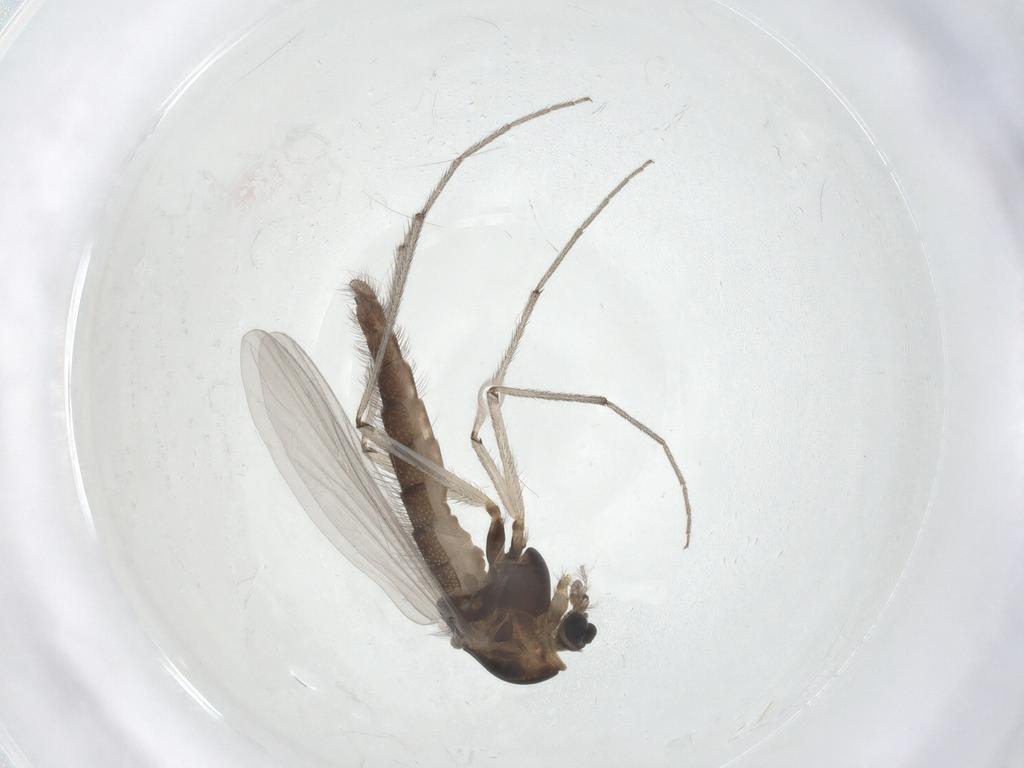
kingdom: Animalia
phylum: Arthropoda
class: Insecta
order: Diptera
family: Chironomidae
